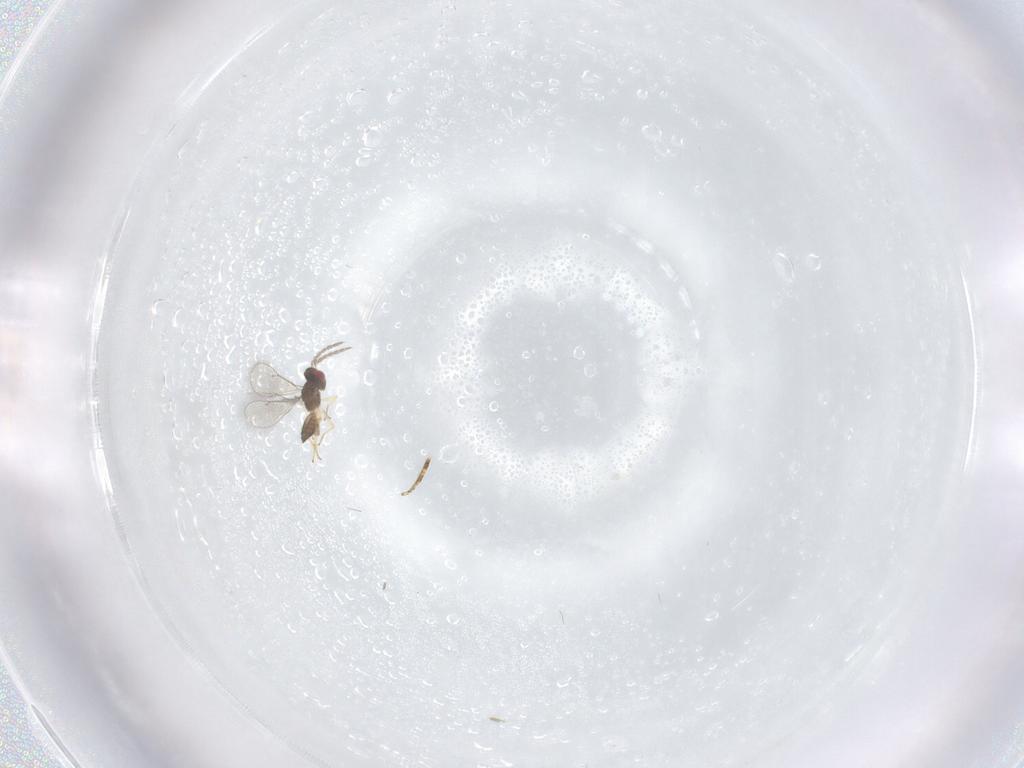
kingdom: Animalia
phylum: Arthropoda
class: Insecta
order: Hymenoptera
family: Eulophidae
